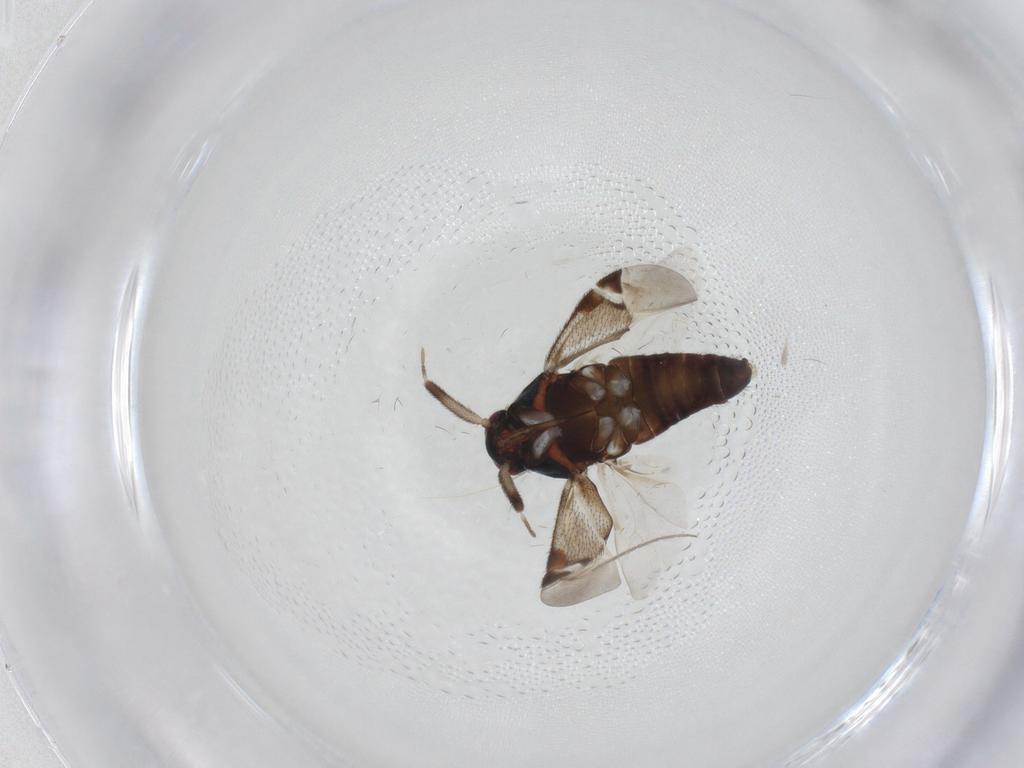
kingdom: Animalia
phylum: Arthropoda
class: Insecta
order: Hemiptera
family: Miridae
